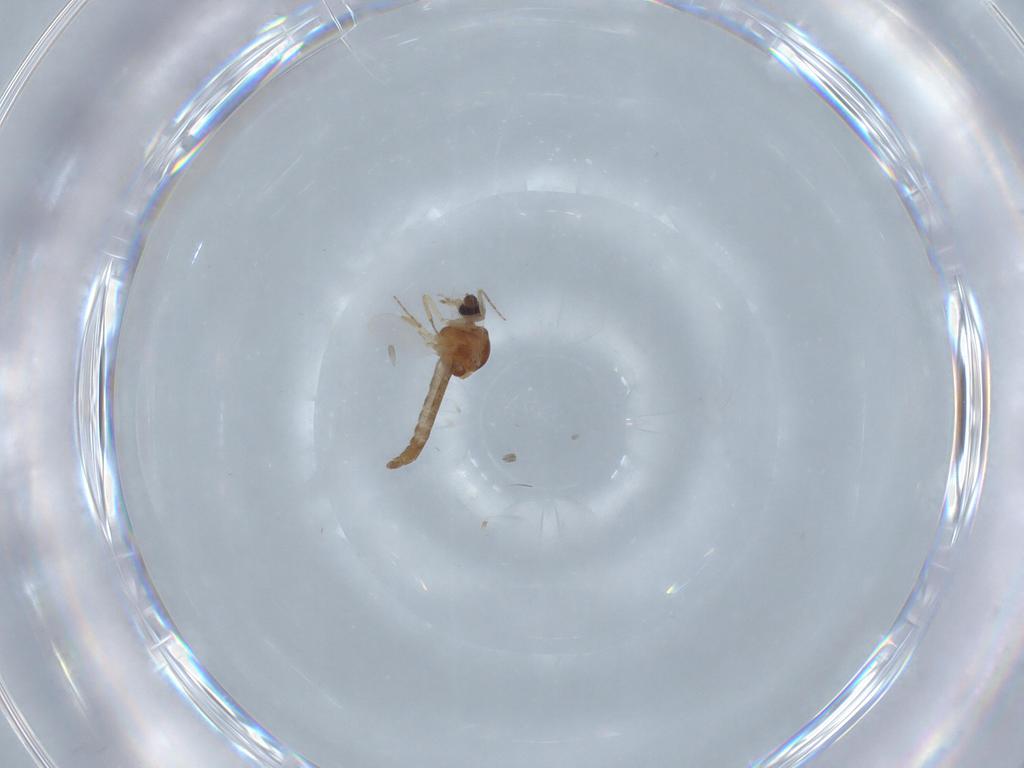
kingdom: Animalia
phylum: Arthropoda
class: Insecta
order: Diptera
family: Ceratopogonidae
